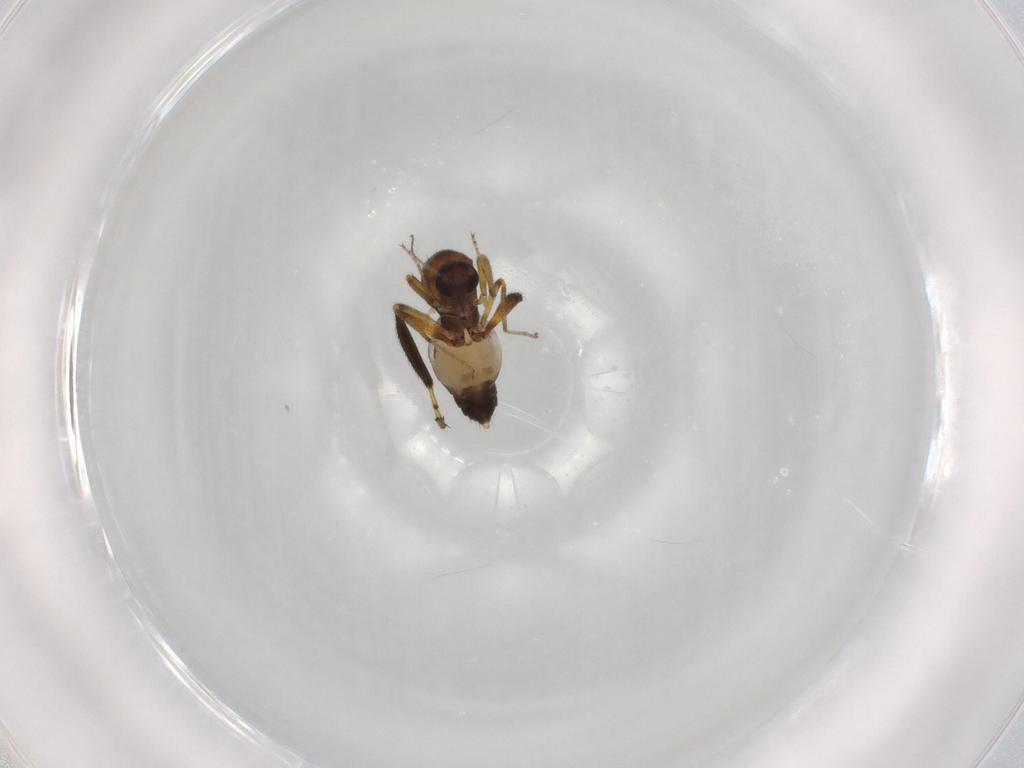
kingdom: Animalia
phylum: Arthropoda
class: Insecta
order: Diptera
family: Ceratopogonidae
